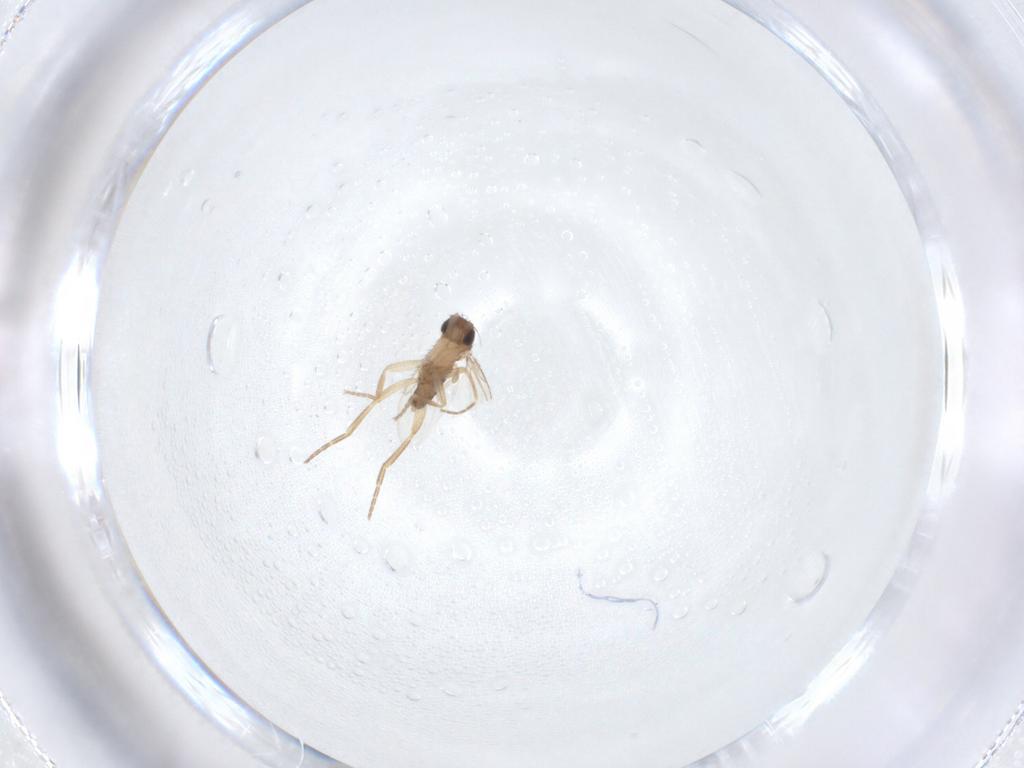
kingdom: Animalia
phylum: Arthropoda
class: Insecta
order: Diptera
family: Phoridae
